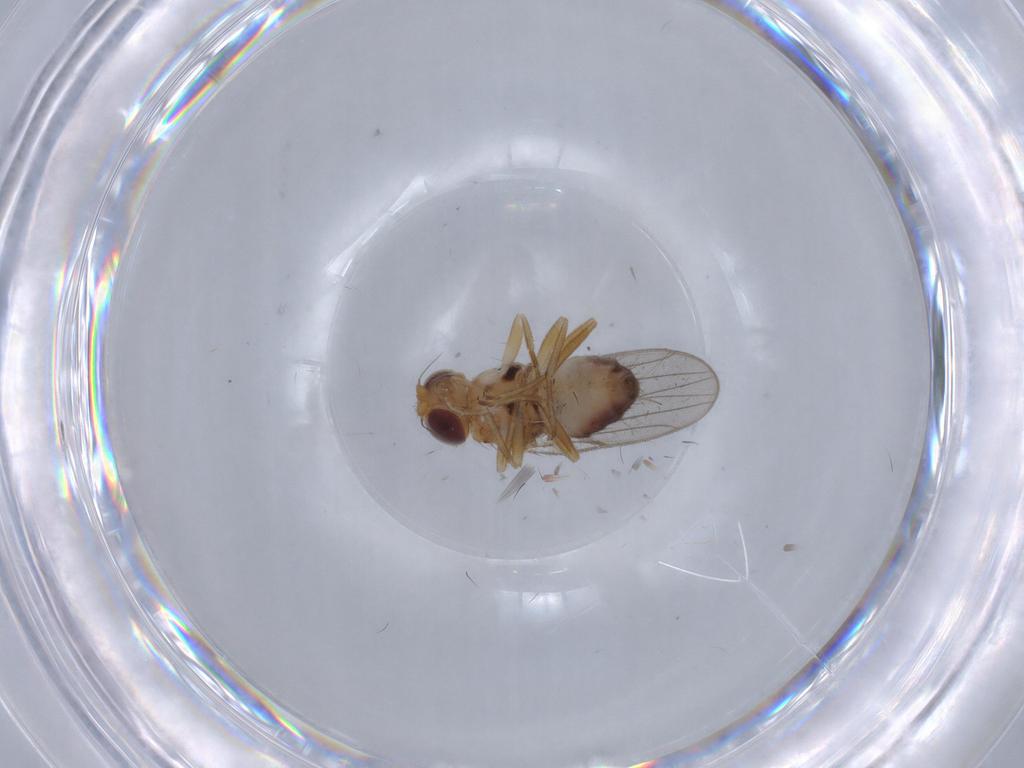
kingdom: Animalia
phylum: Arthropoda
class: Insecta
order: Diptera
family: Chloropidae
